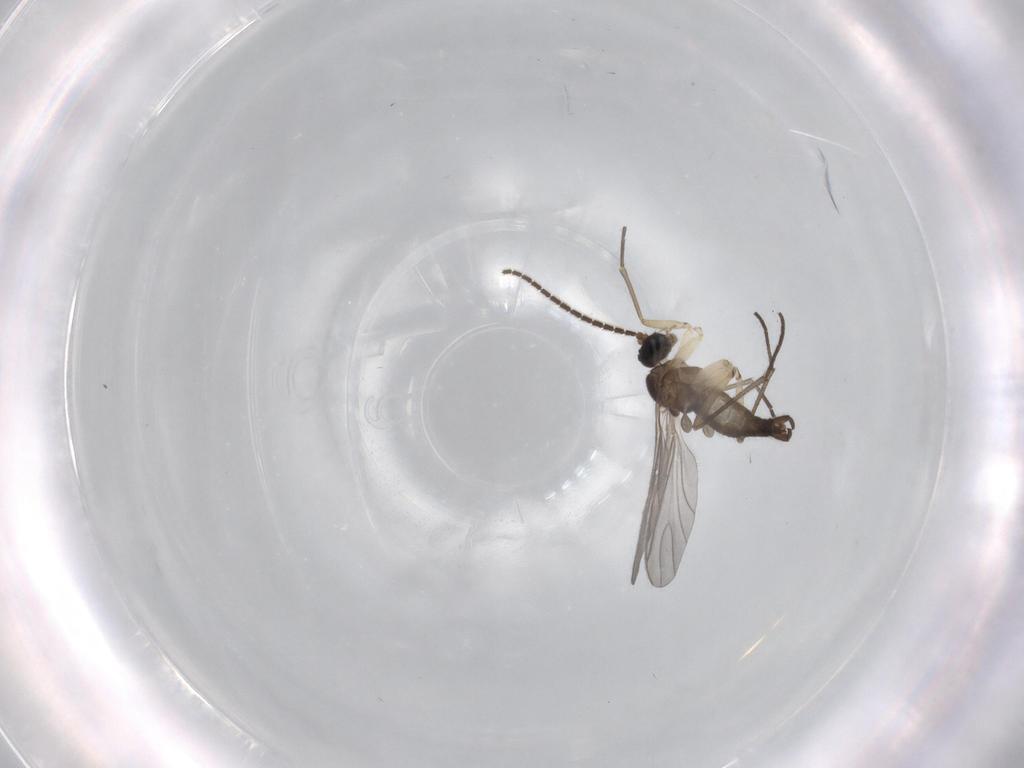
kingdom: Animalia
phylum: Arthropoda
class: Insecta
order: Diptera
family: Sciaridae
